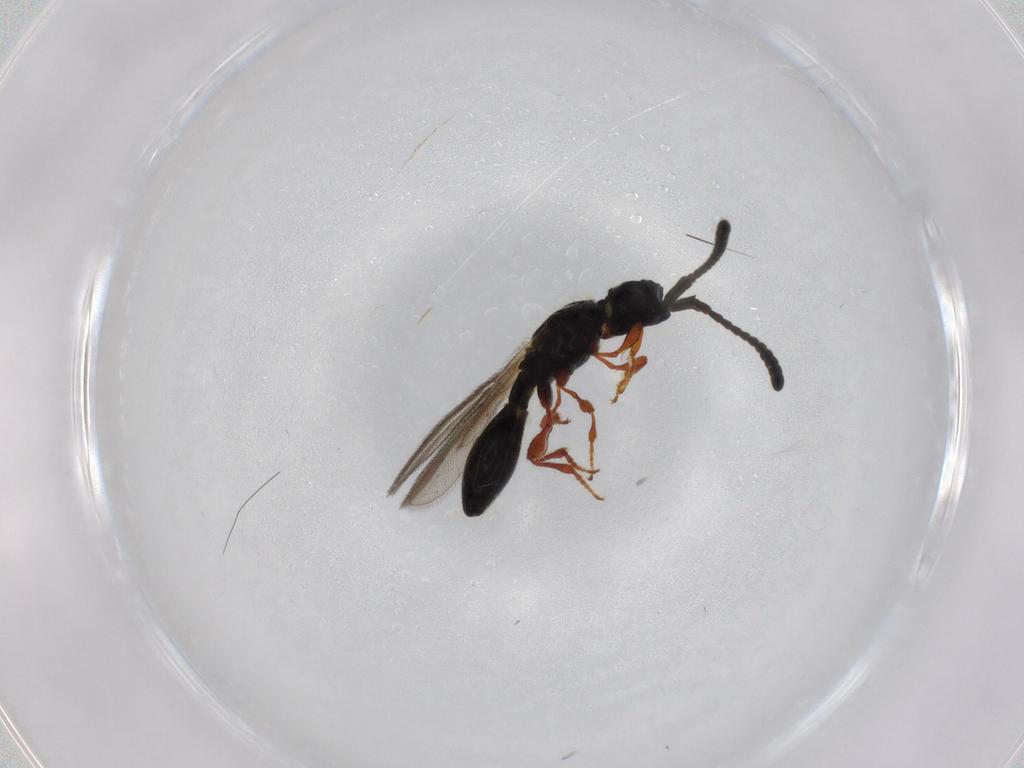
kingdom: Animalia
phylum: Arthropoda
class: Insecta
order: Hymenoptera
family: Diapriidae
